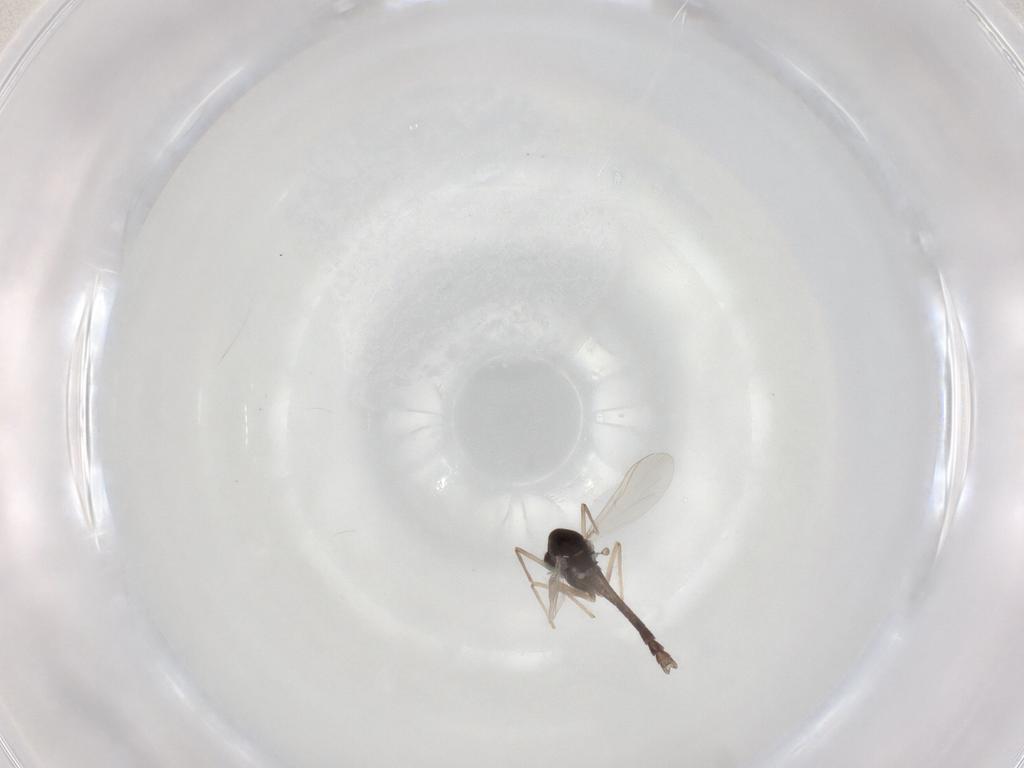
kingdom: Animalia
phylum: Arthropoda
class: Insecta
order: Diptera
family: Chironomidae
